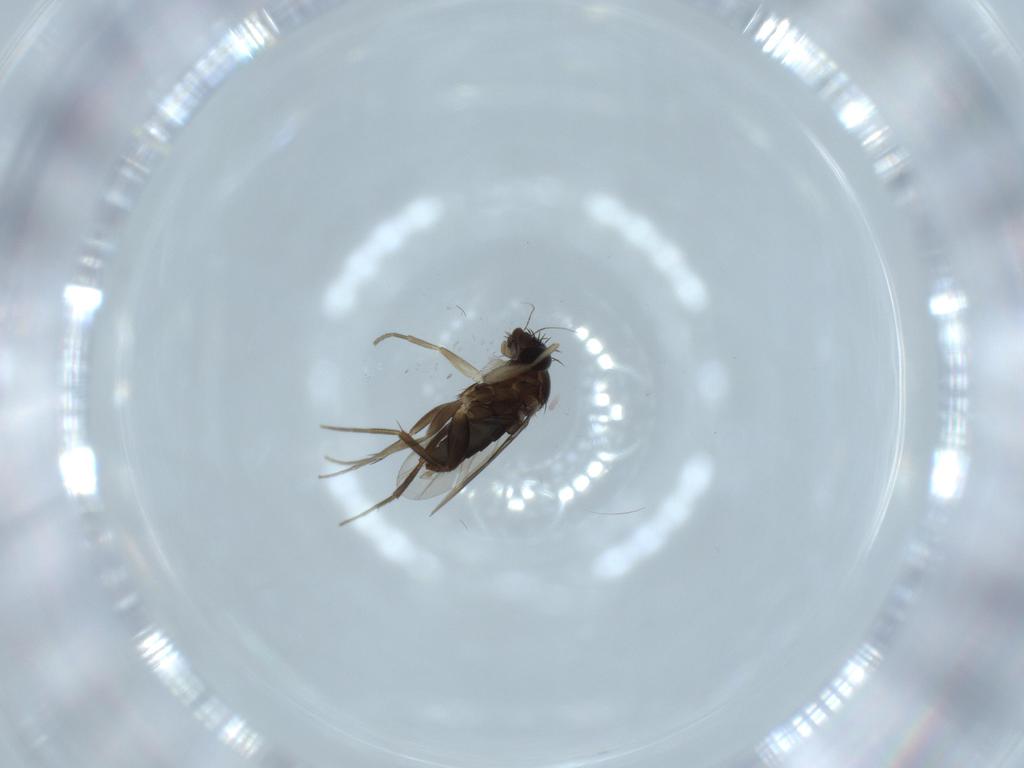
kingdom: Animalia
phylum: Arthropoda
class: Insecta
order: Diptera
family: Phoridae
